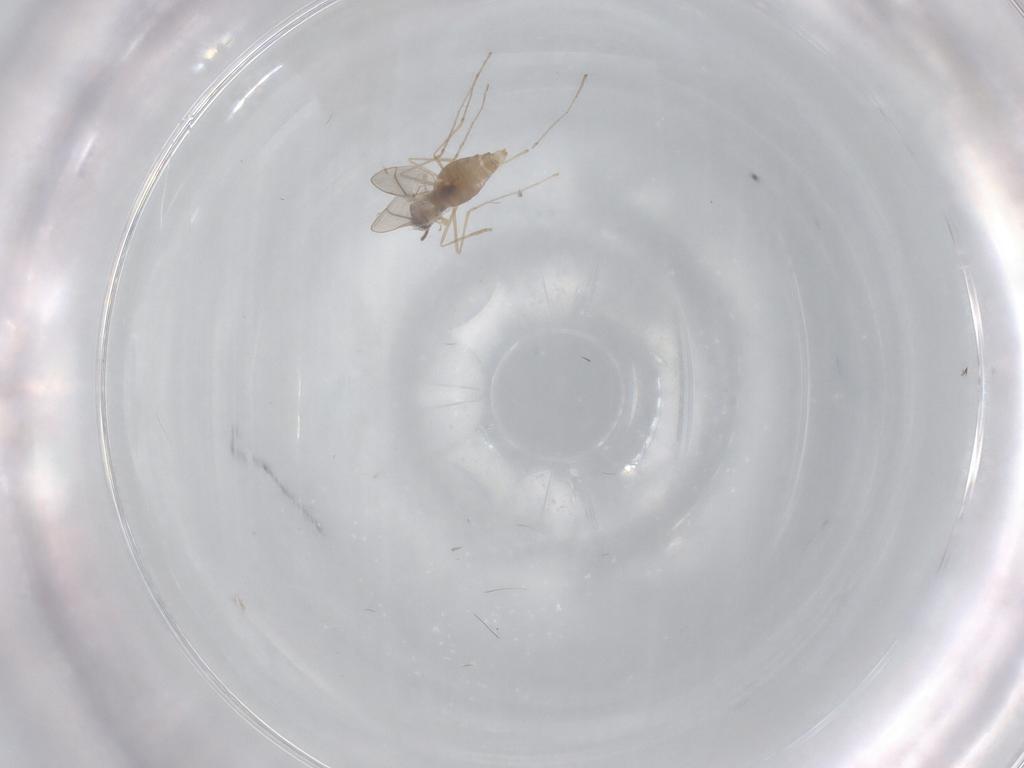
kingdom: Animalia
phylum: Arthropoda
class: Insecta
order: Diptera
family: Cecidomyiidae
